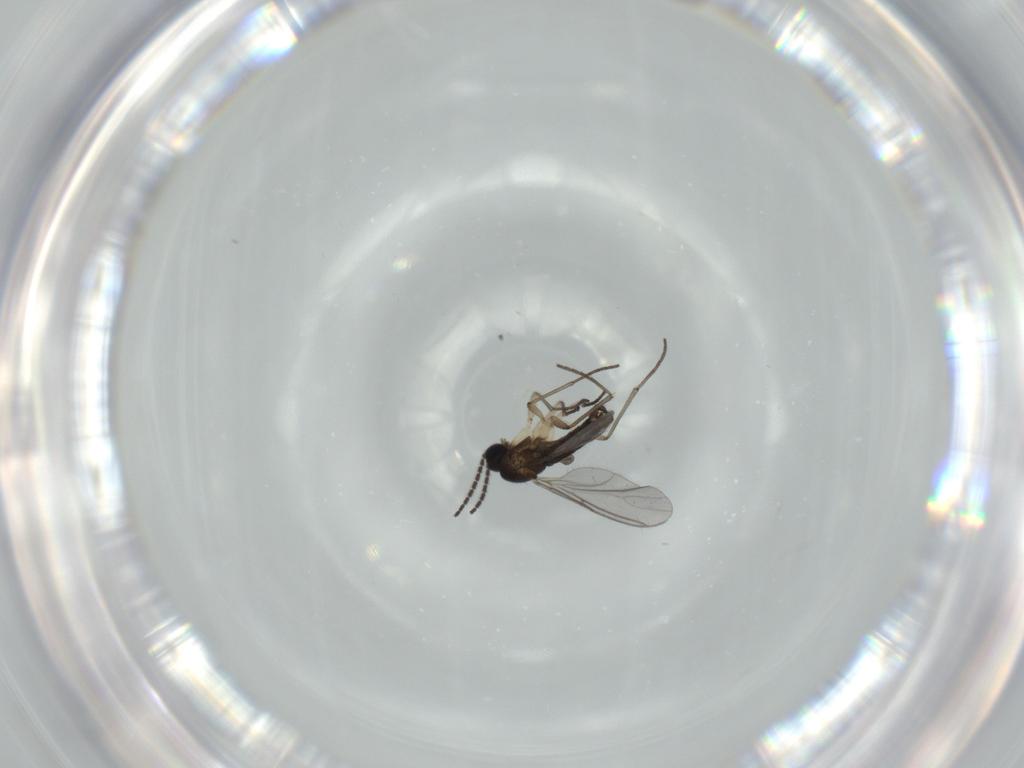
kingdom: Animalia
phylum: Arthropoda
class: Insecta
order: Diptera
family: Sciaridae
